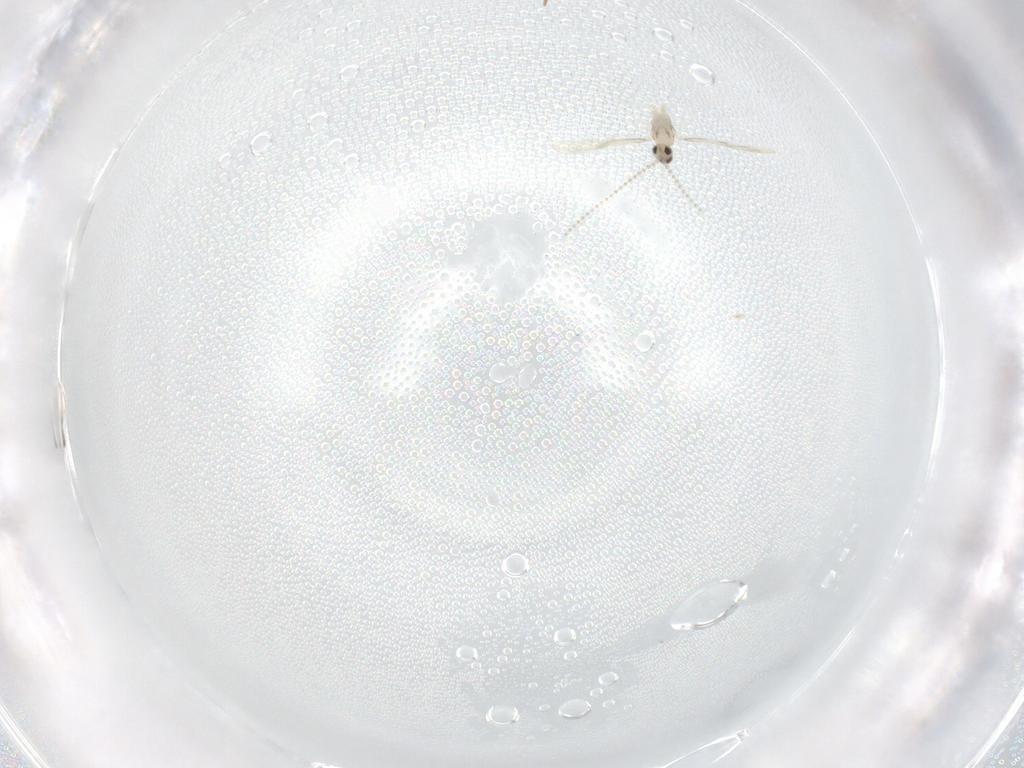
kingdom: Animalia
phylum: Arthropoda
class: Insecta
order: Diptera
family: Cecidomyiidae
